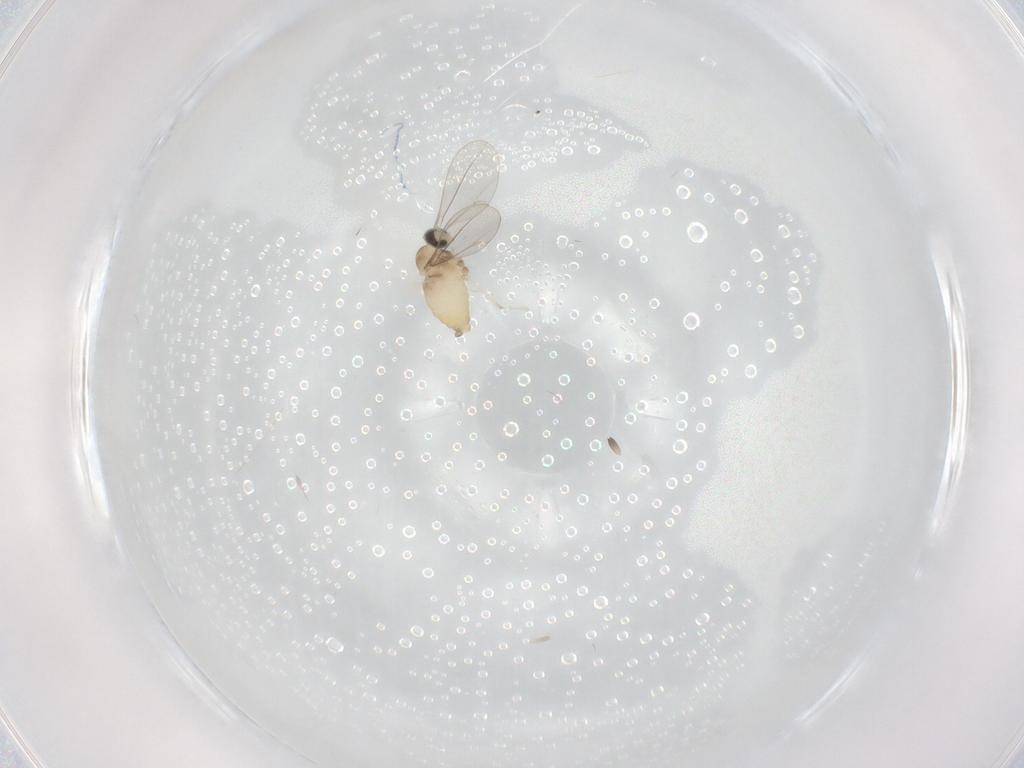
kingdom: Animalia
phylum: Arthropoda
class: Insecta
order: Diptera
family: Cecidomyiidae
